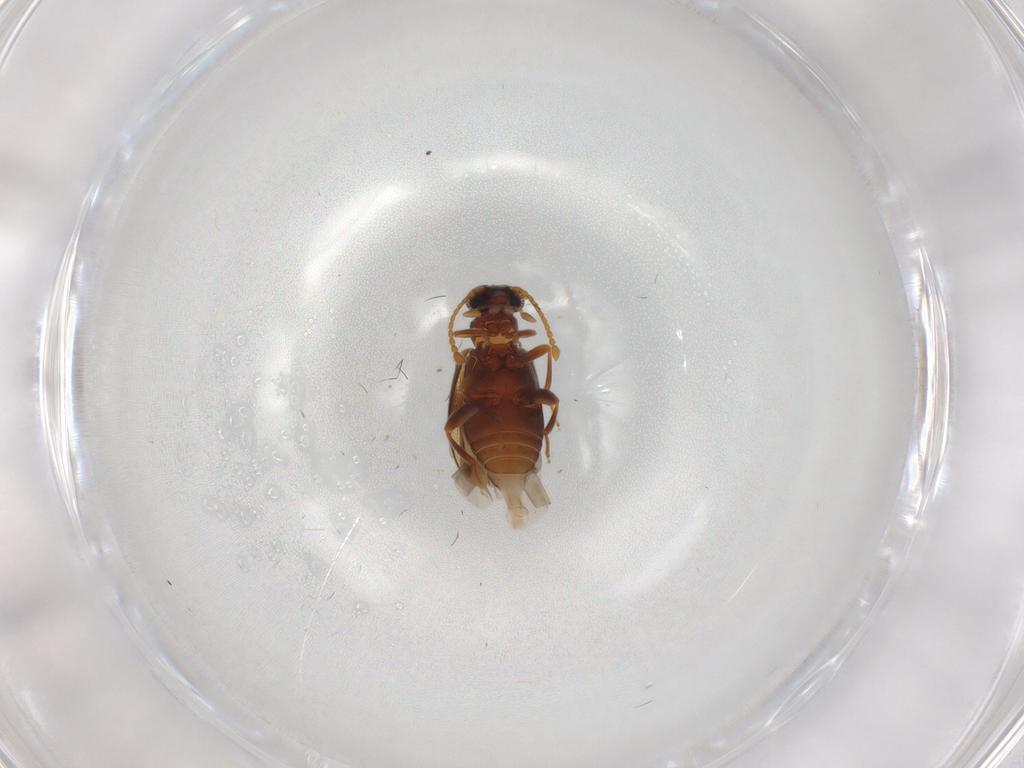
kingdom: Animalia
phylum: Arthropoda
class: Insecta
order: Coleoptera
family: Aderidae
